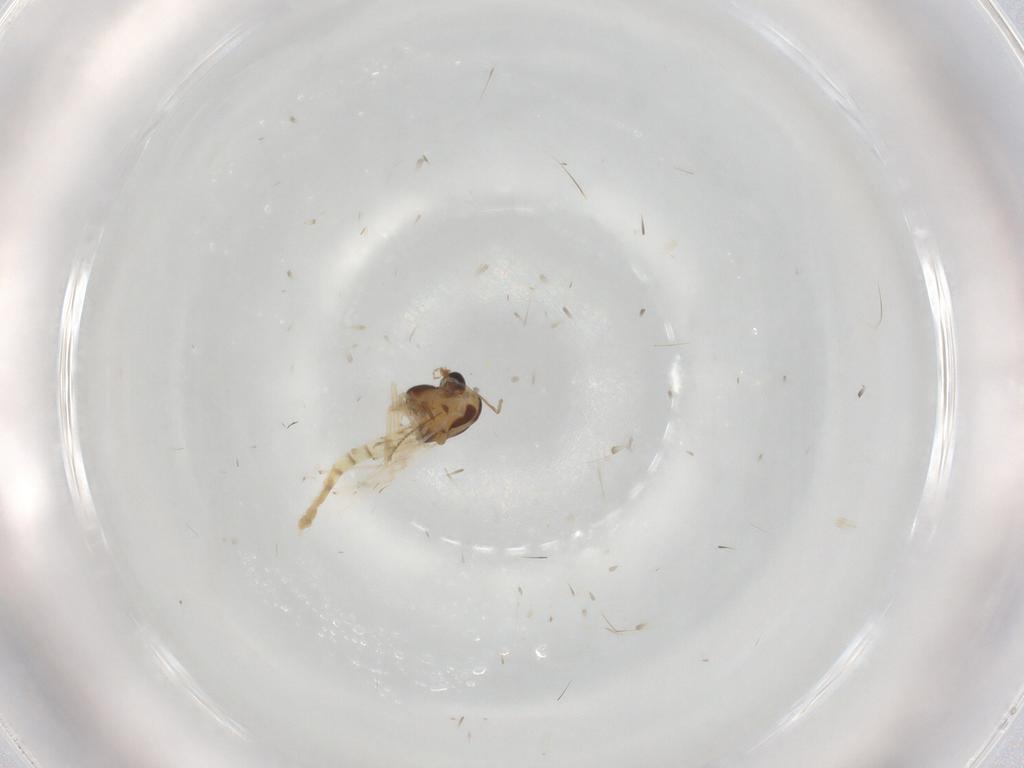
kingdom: Animalia
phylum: Arthropoda
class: Insecta
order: Diptera
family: Chironomidae
